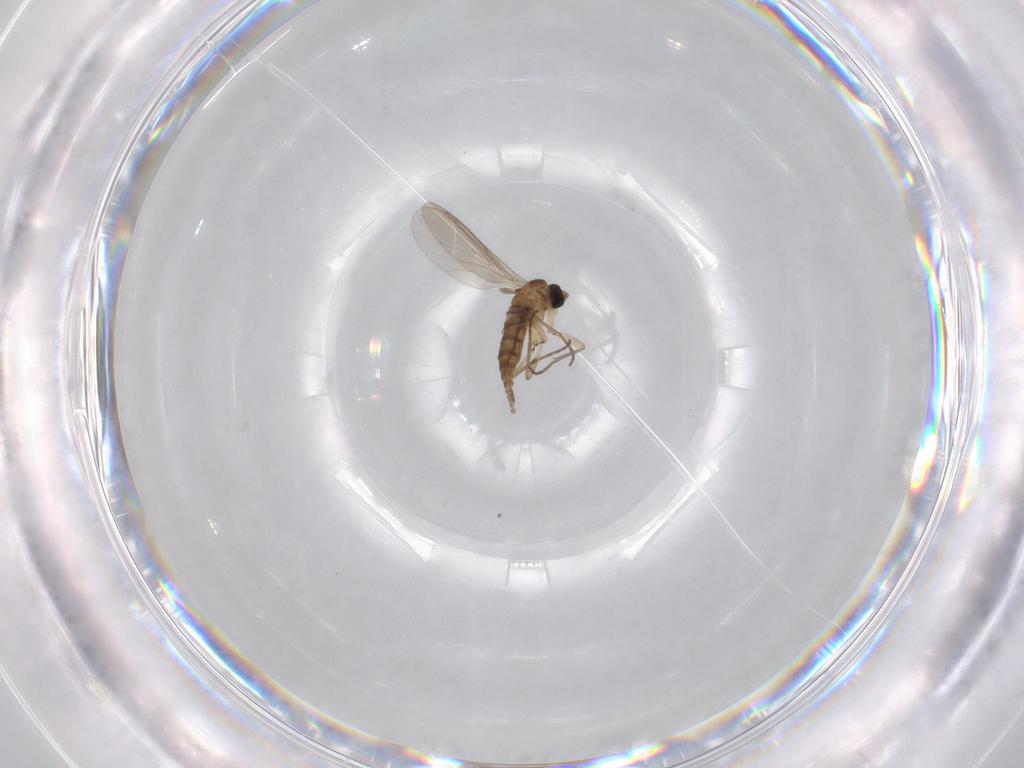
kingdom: Animalia
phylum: Arthropoda
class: Insecta
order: Diptera
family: Sciaridae
